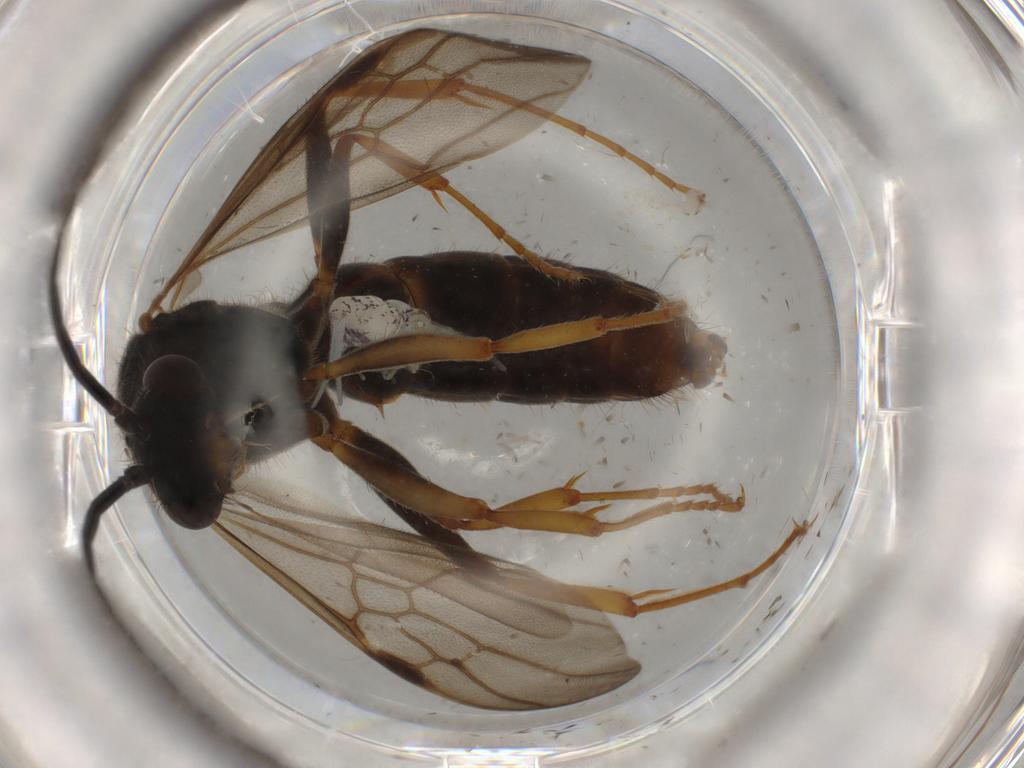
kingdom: Animalia
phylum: Arthropoda
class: Insecta
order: Hymenoptera
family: Formicidae
